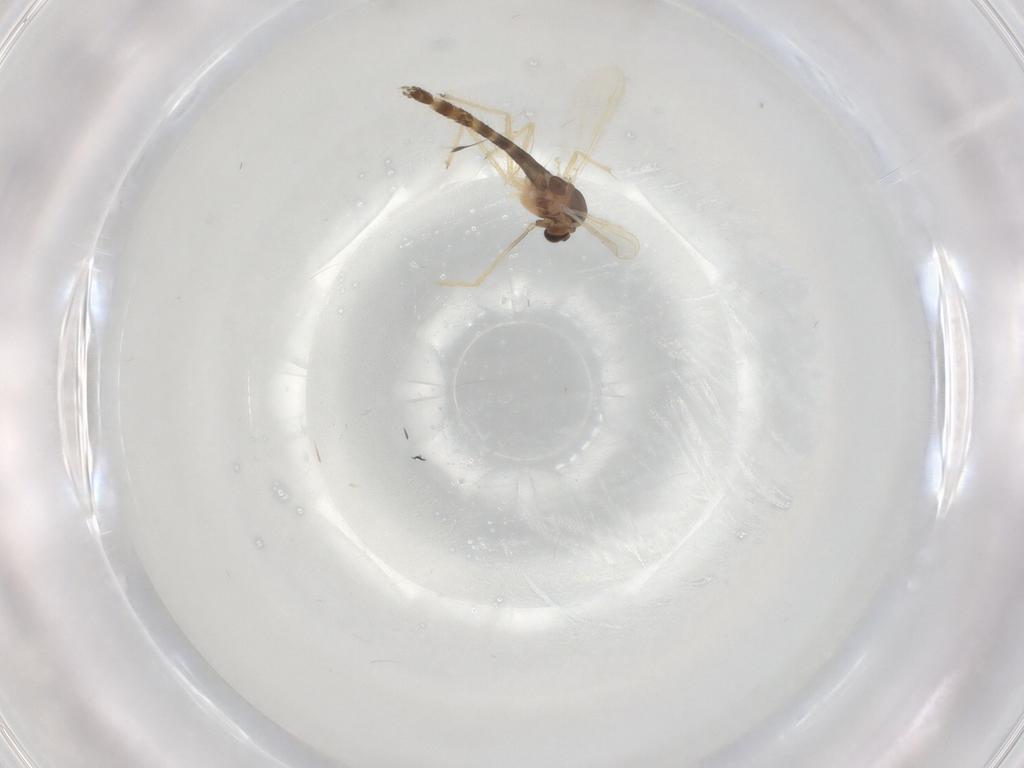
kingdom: Animalia
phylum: Arthropoda
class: Insecta
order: Diptera
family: Chironomidae
